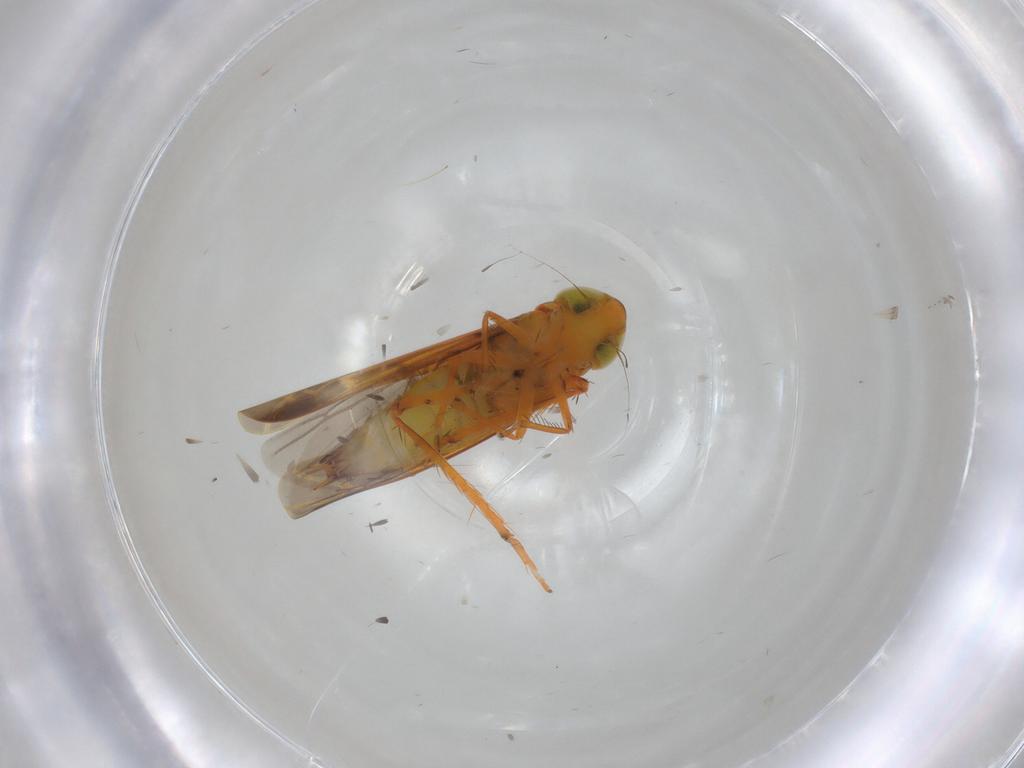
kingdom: Animalia
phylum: Arthropoda
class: Insecta
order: Hemiptera
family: Cicadellidae
